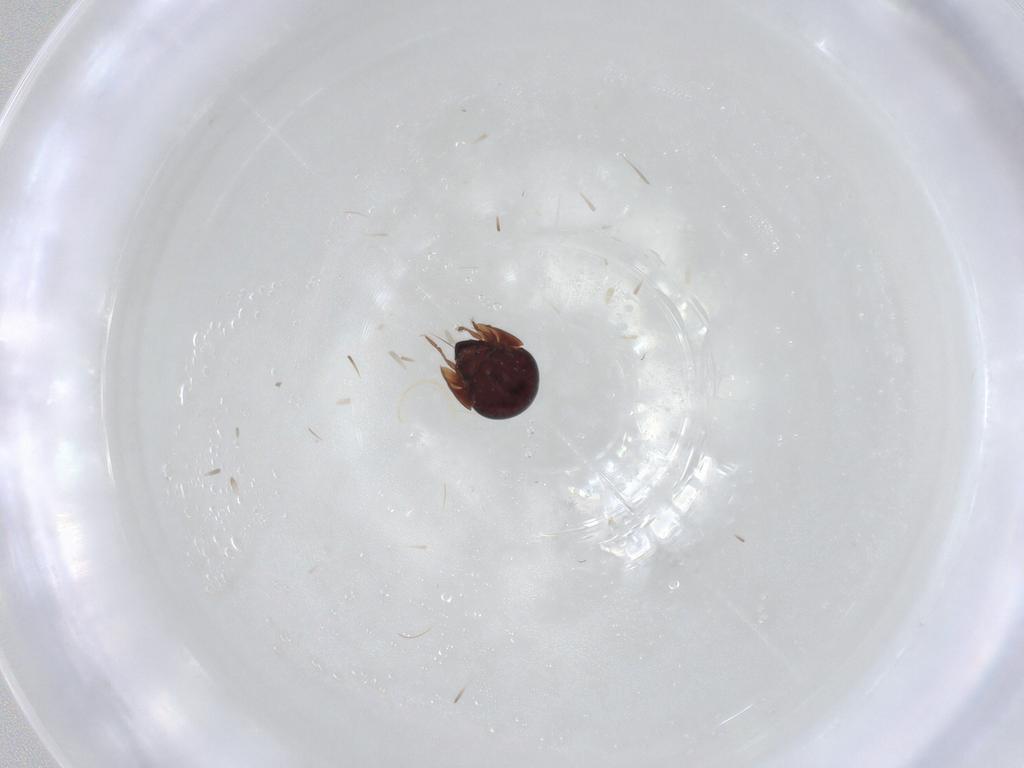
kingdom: Animalia
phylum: Arthropoda
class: Arachnida
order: Sarcoptiformes
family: Galumnidae
